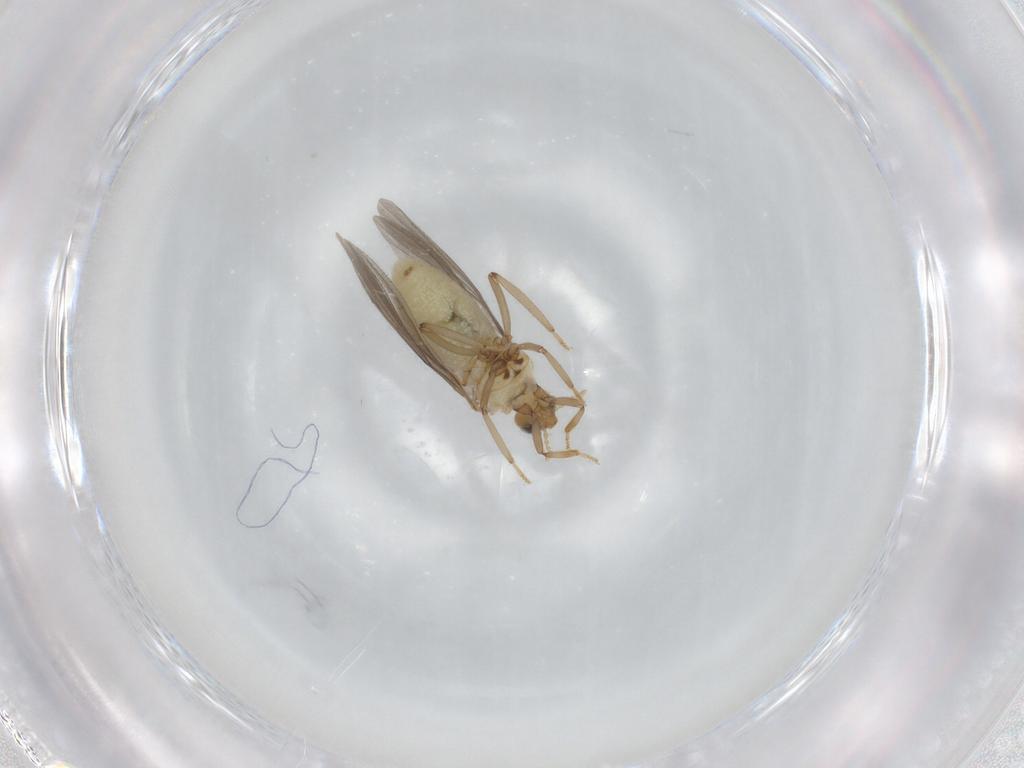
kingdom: Animalia
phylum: Arthropoda
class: Insecta
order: Neuroptera
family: Coniopterygidae
